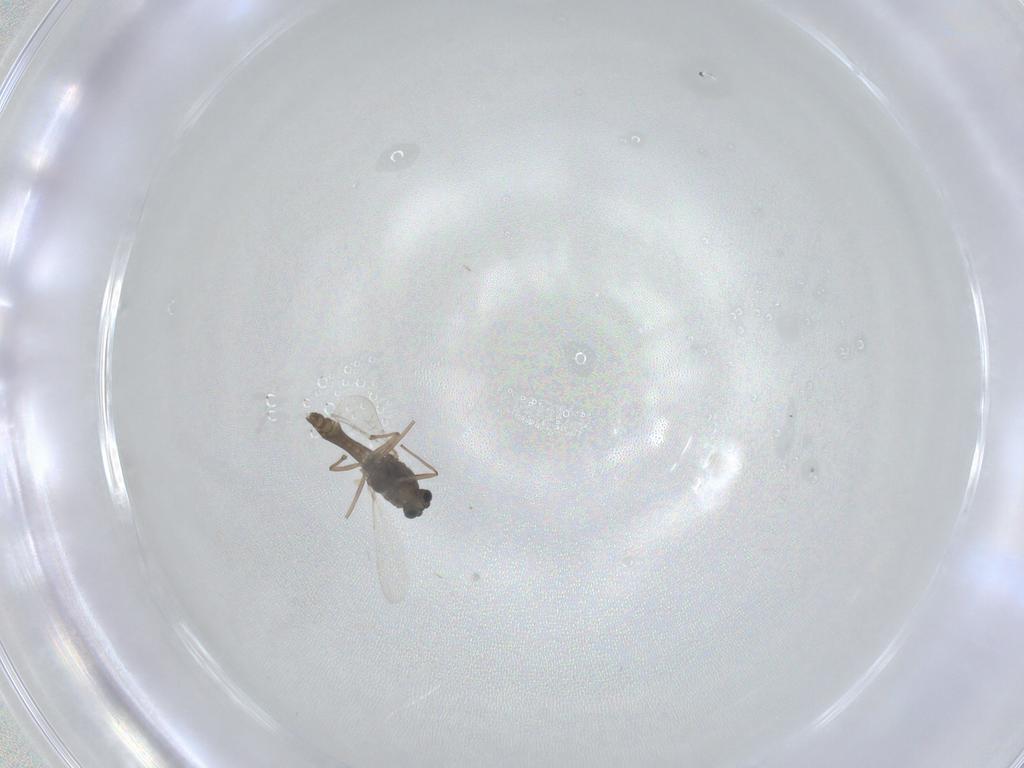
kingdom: Animalia
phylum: Arthropoda
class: Insecta
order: Diptera
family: Chironomidae
